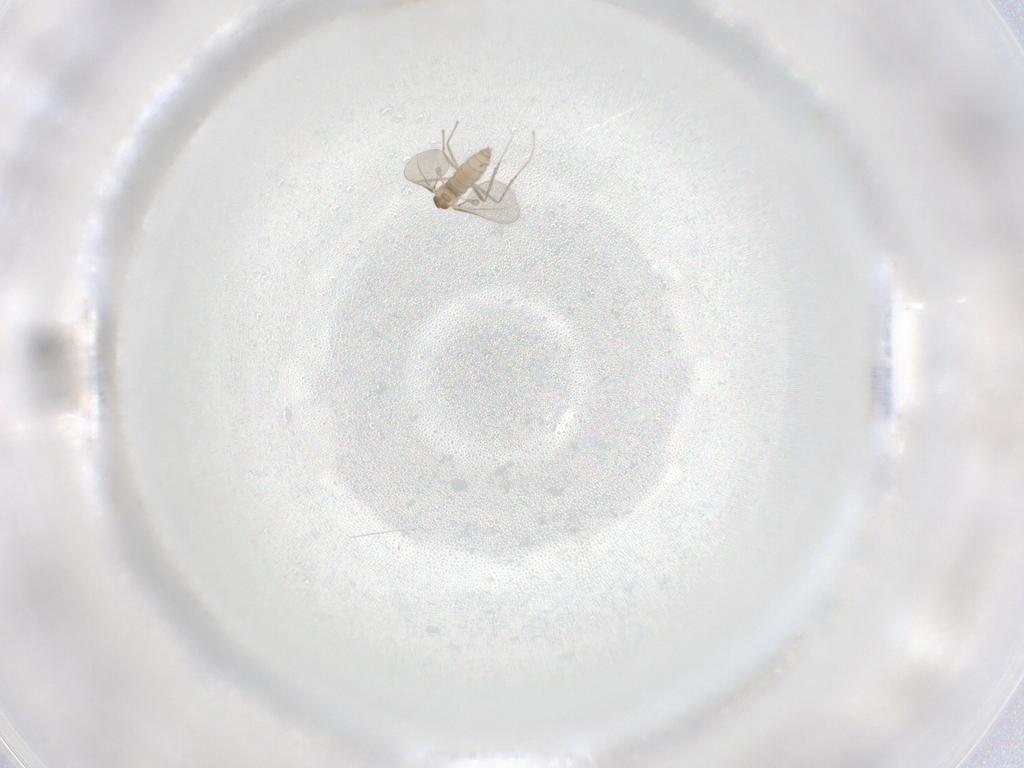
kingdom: Animalia
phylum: Arthropoda
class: Insecta
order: Diptera
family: Cecidomyiidae
